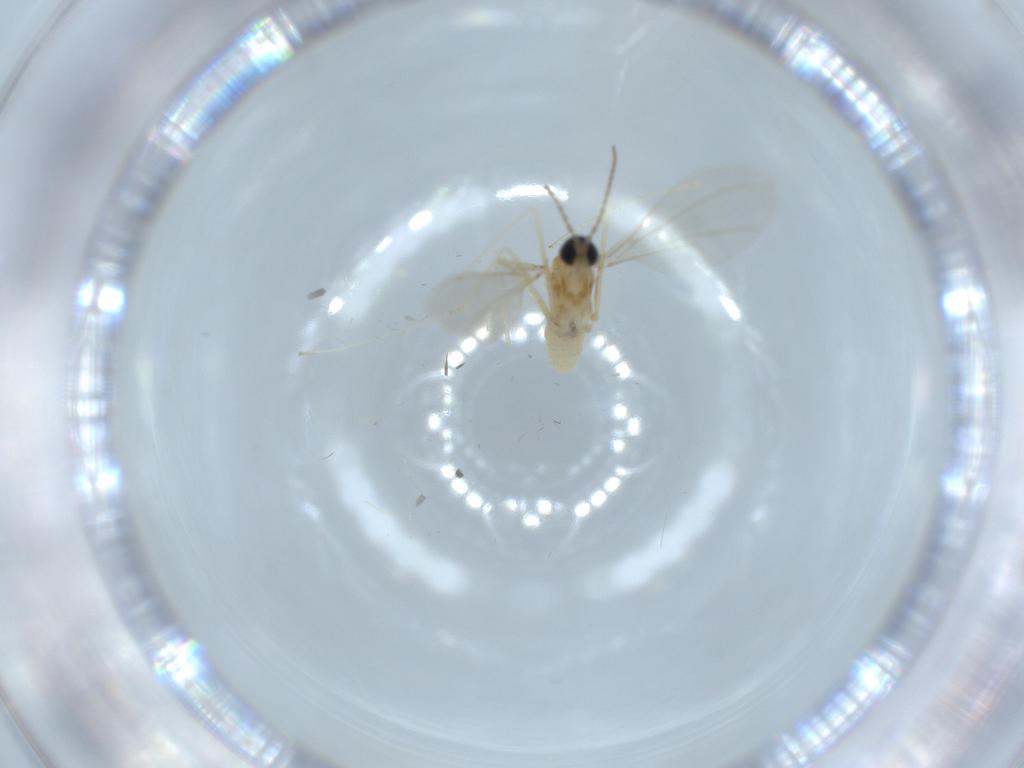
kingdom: Animalia
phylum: Arthropoda
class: Insecta
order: Diptera
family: Cecidomyiidae
